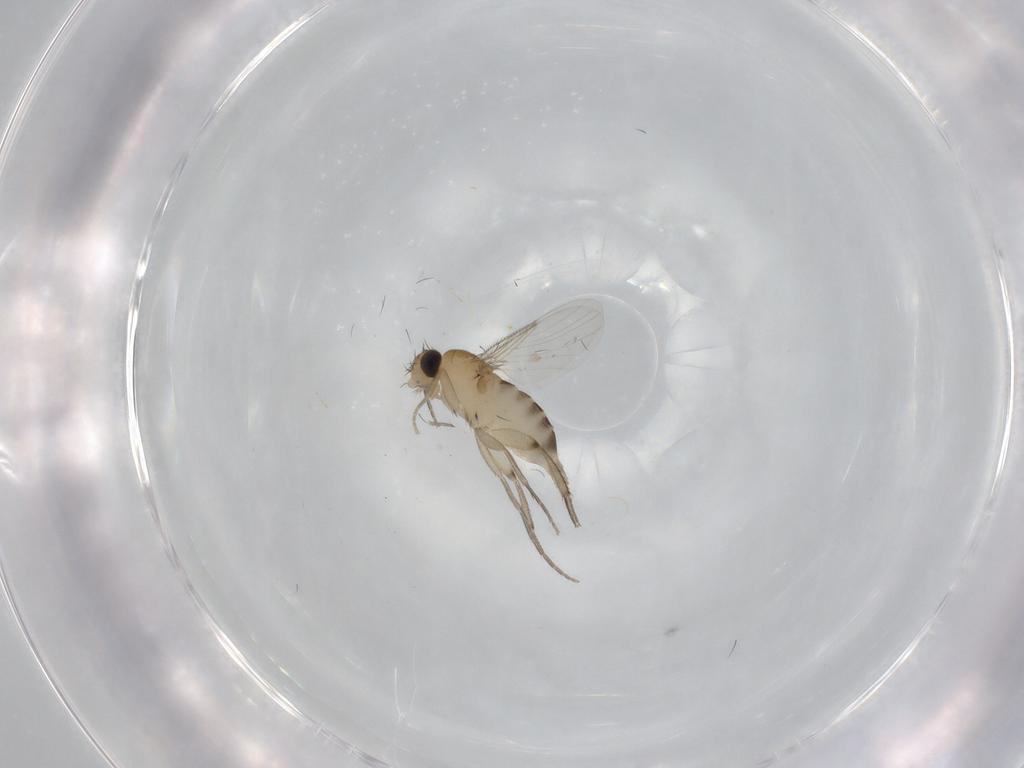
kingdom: Animalia
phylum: Arthropoda
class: Insecta
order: Diptera
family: Phoridae
